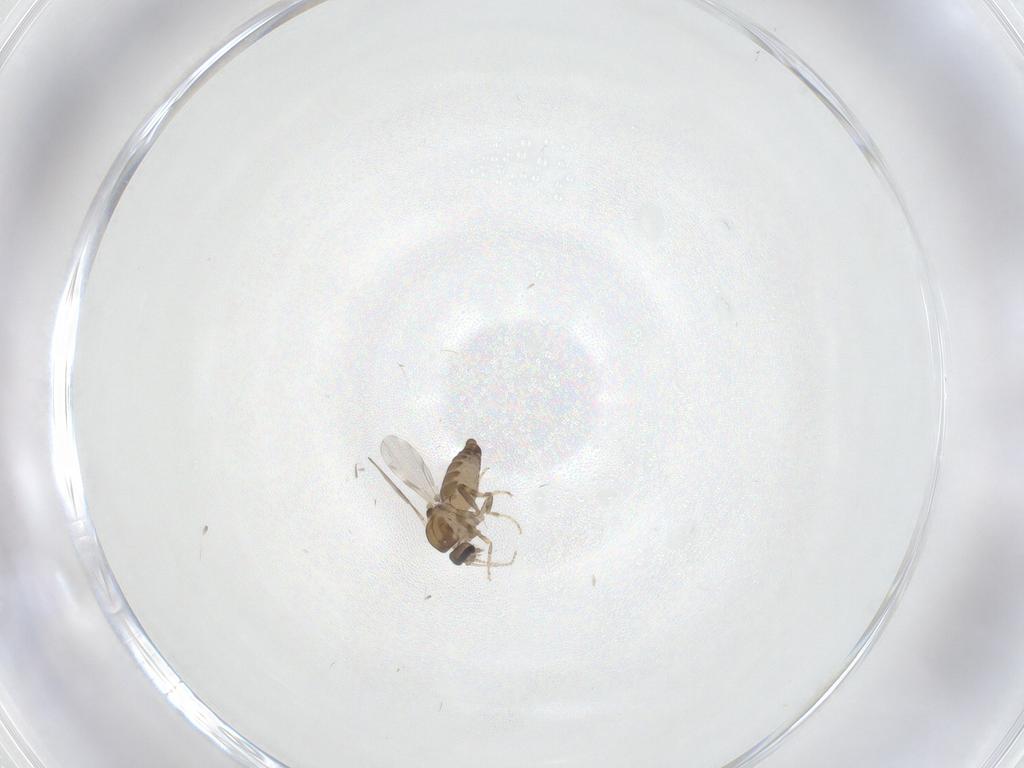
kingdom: Animalia
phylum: Arthropoda
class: Insecta
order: Diptera
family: Ceratopogonidae
